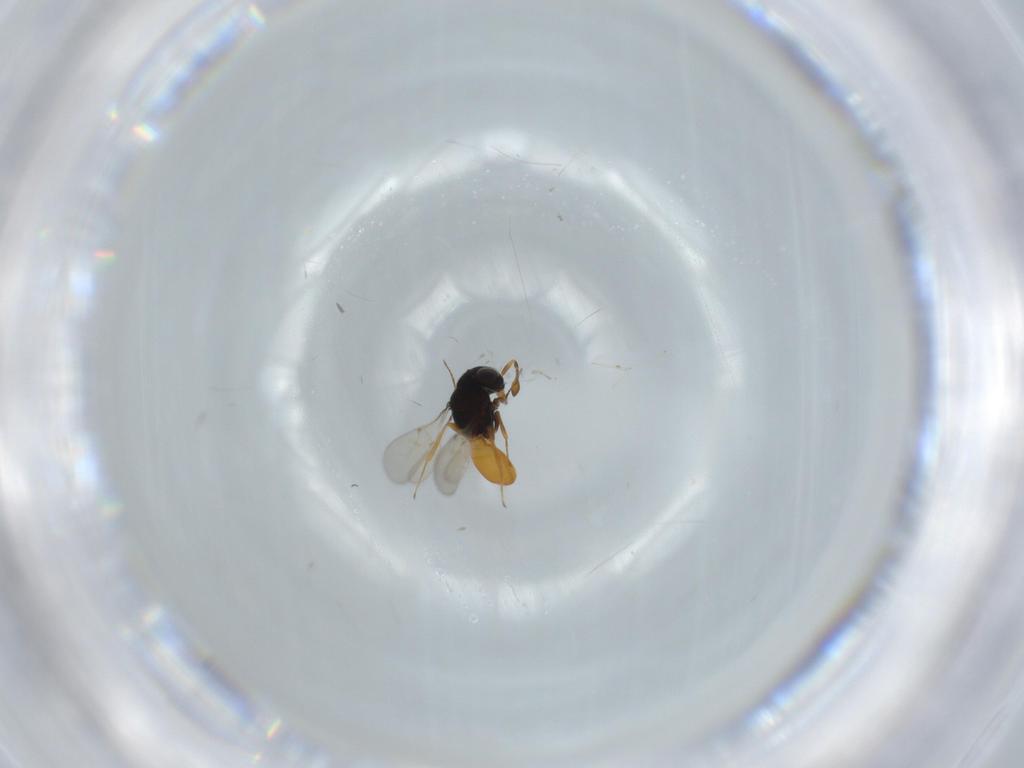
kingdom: Animalia
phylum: Arthropoda
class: Insecta
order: Hymenoptera
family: Scelionidae
